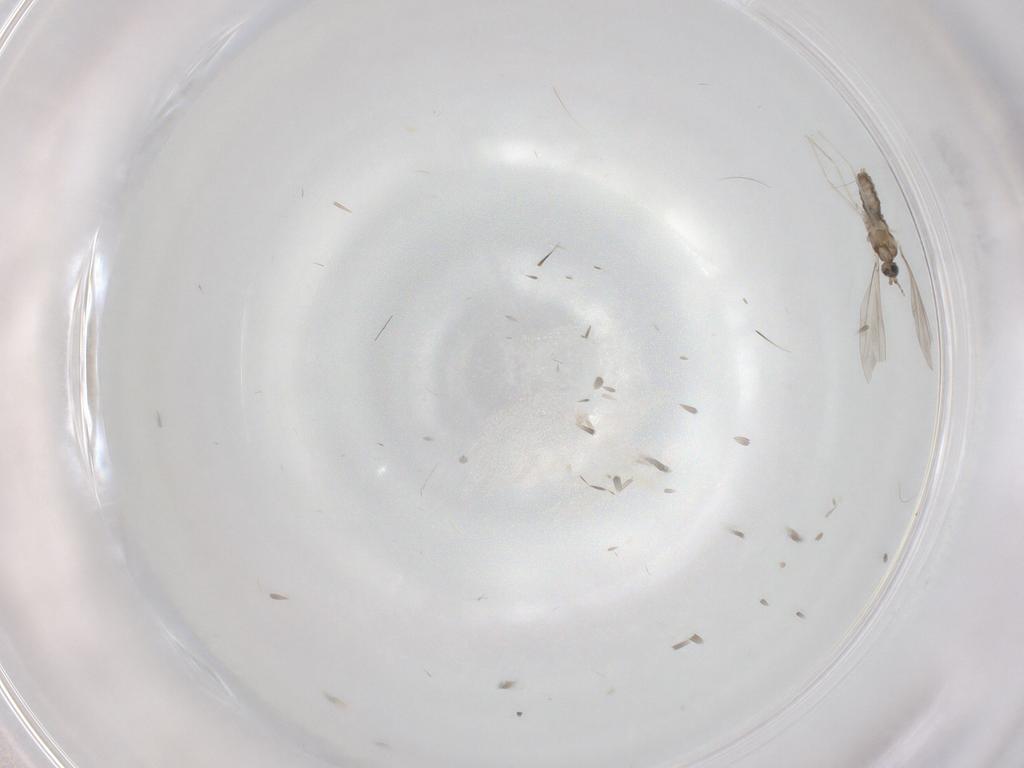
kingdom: Animalia
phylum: Arthropoda
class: Insecta
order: Diptera
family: Cecidomyiidae
